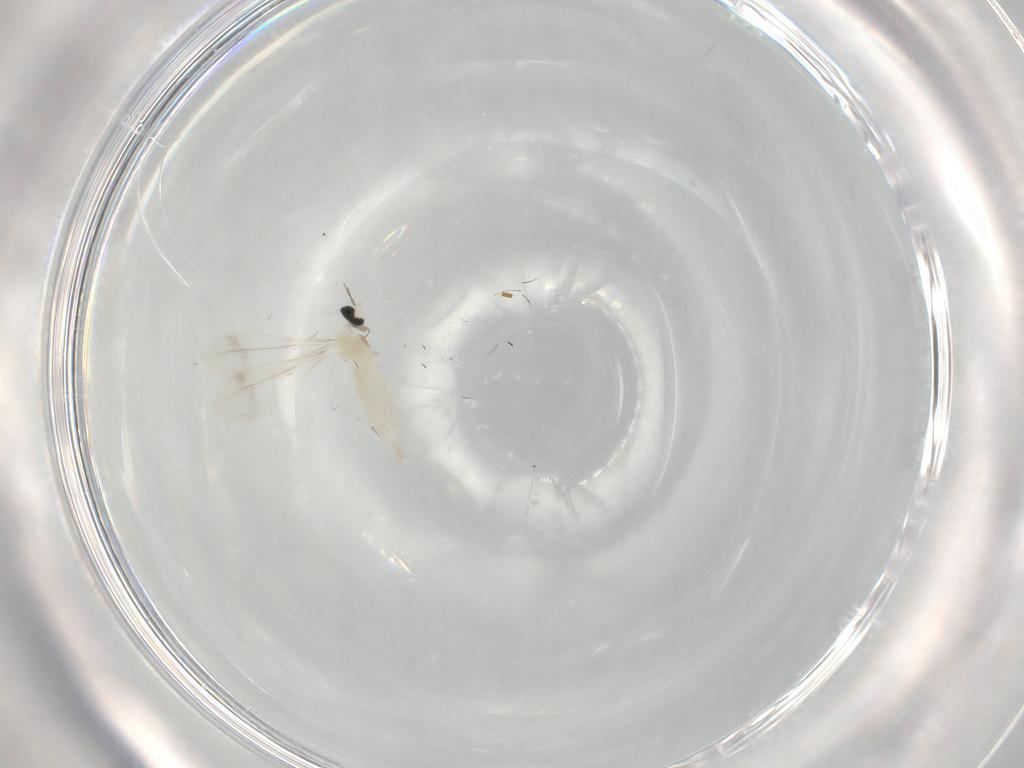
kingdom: Animalia
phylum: Arthropoda
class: Insecta
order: Diptera
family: Cecidomyiidae
